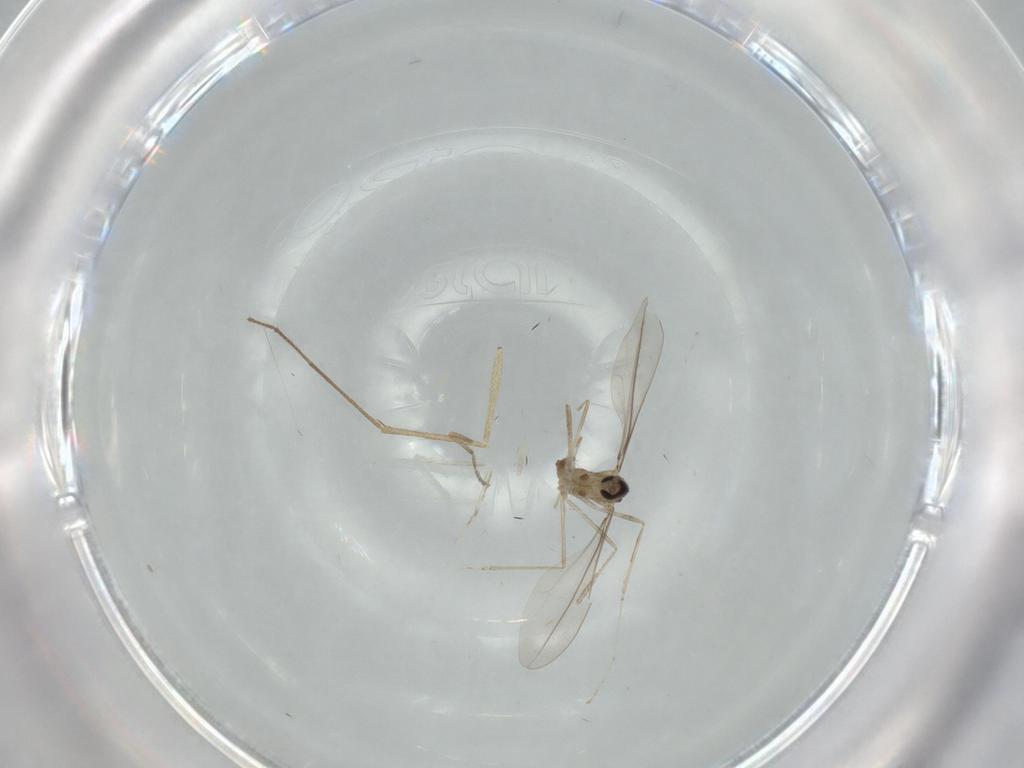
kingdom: Animalia
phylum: Arthropoda
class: Insecta
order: Diptera
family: Cecidomyiidae
